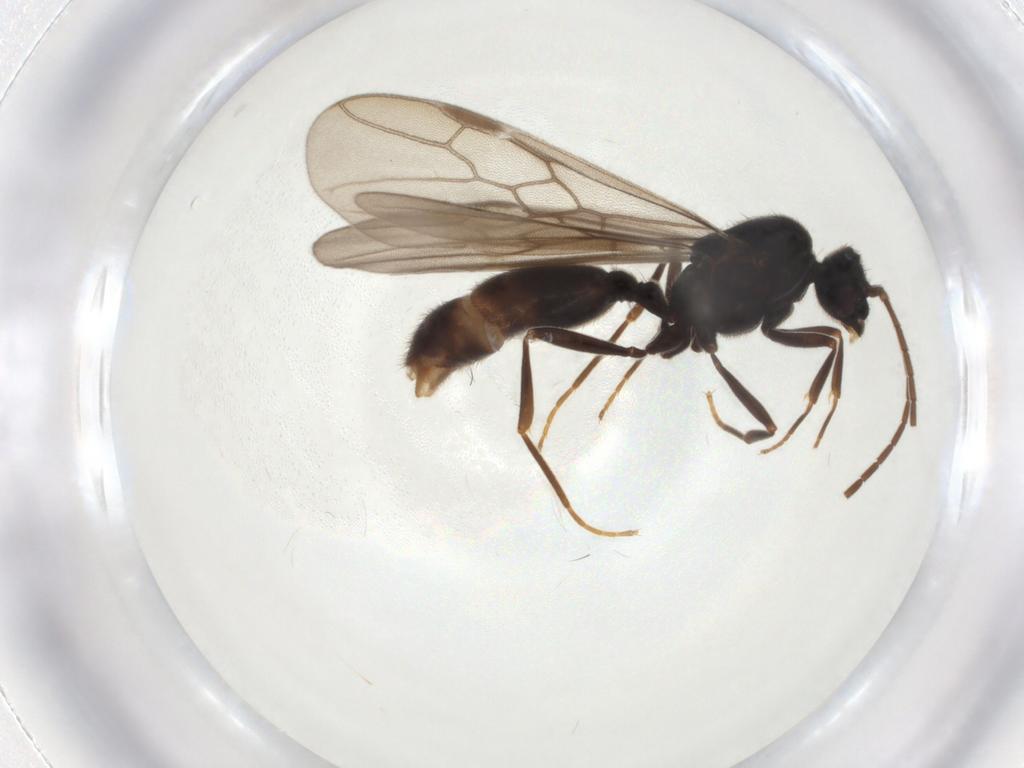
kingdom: Animalia
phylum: Arthropoda
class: Insecta
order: Hymenoptera
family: Formicidae
